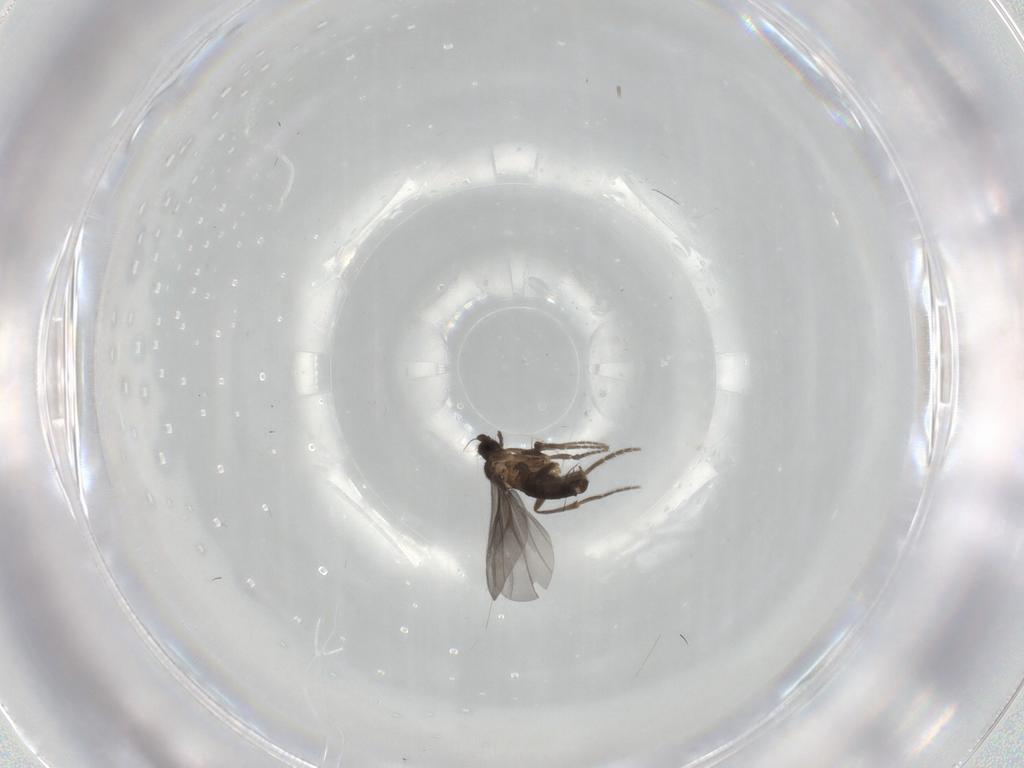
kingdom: Animalia
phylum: Arthropoda
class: Insecta
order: Diptera
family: Phoridae
